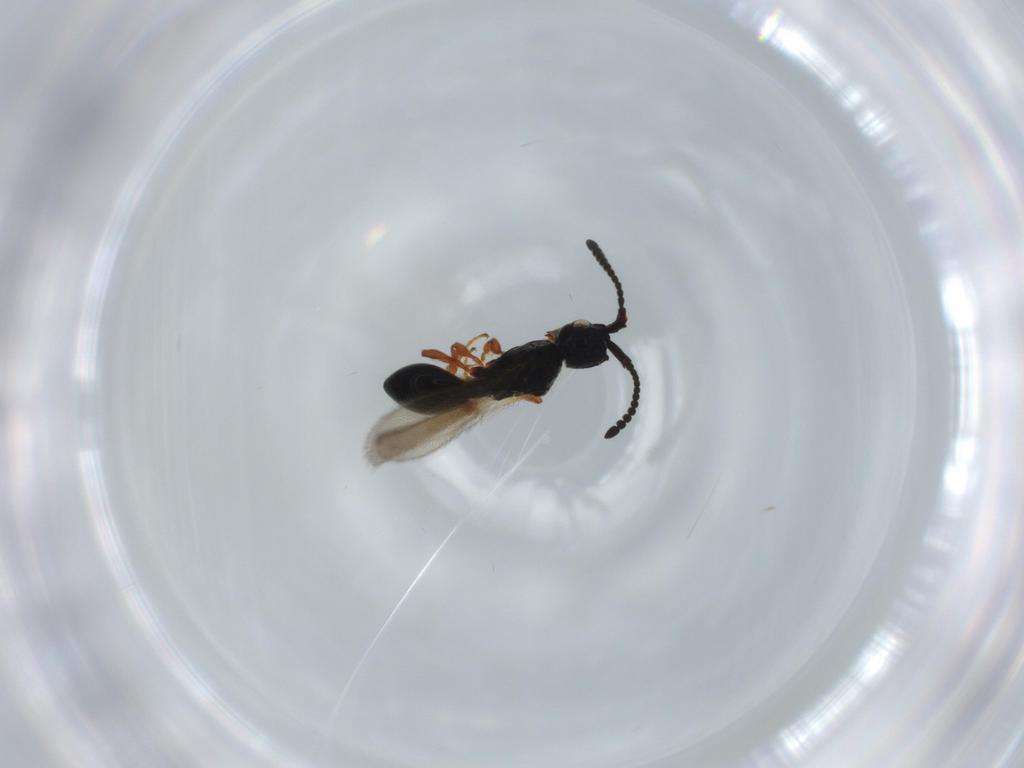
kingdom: Animalia
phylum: Arthropoda
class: Insecta
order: Hymenoptera
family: Diapriidae
